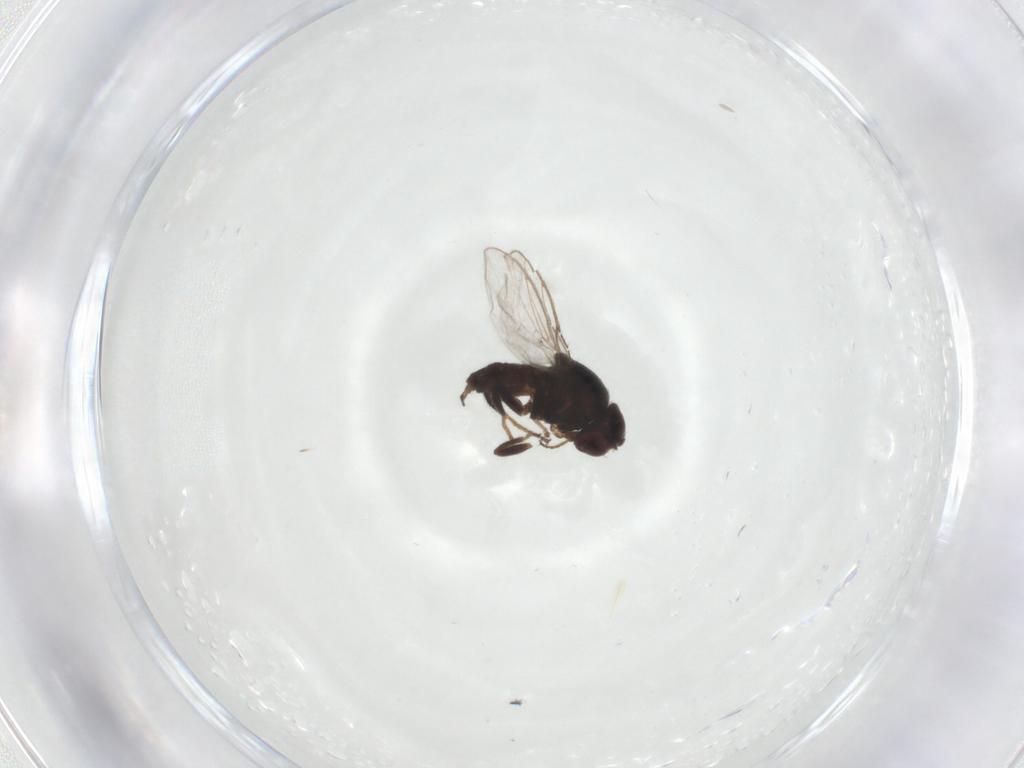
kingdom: Animalia
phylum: Arthropoda
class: Insecta
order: Diptera
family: Chloropidae
